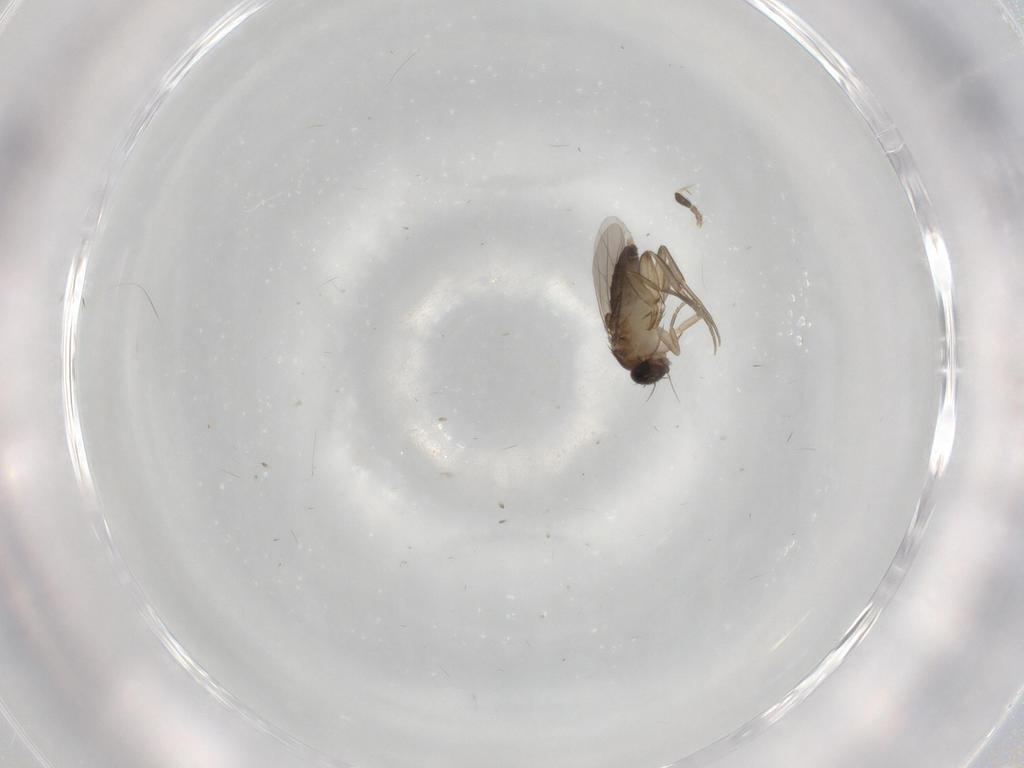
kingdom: Animalia
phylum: Arthropoda
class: Insecta
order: Diptera
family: Phoridae
